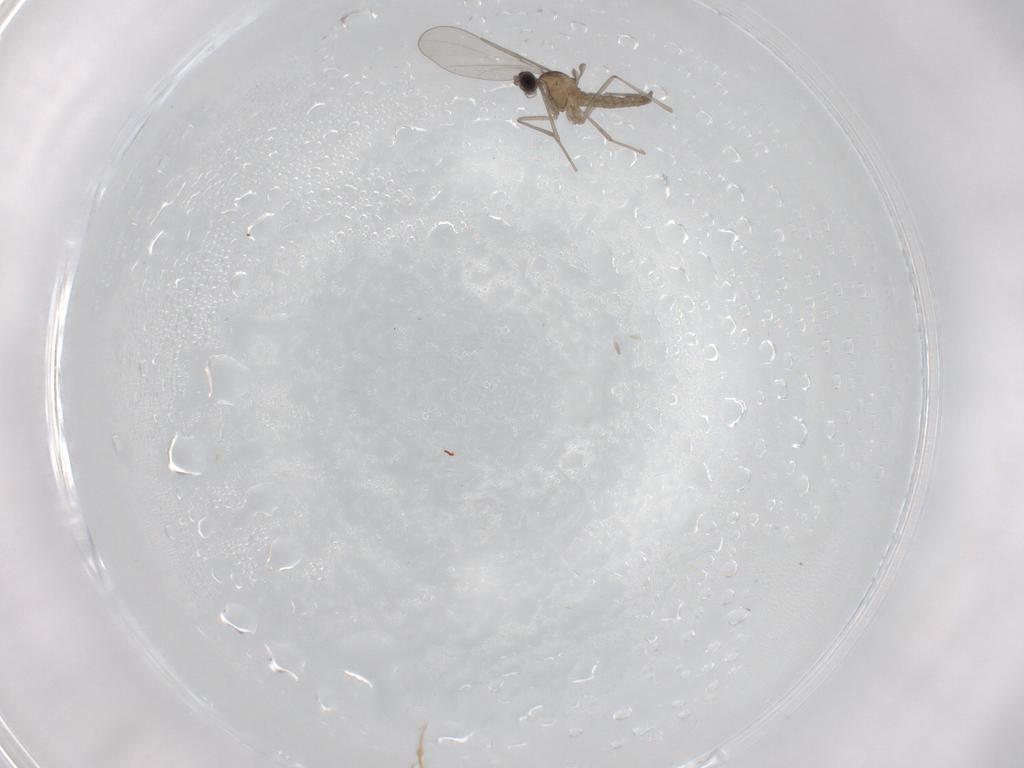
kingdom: Animalia
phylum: Arthropoda
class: Insecta
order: Diptera
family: Cecidomyiidae
